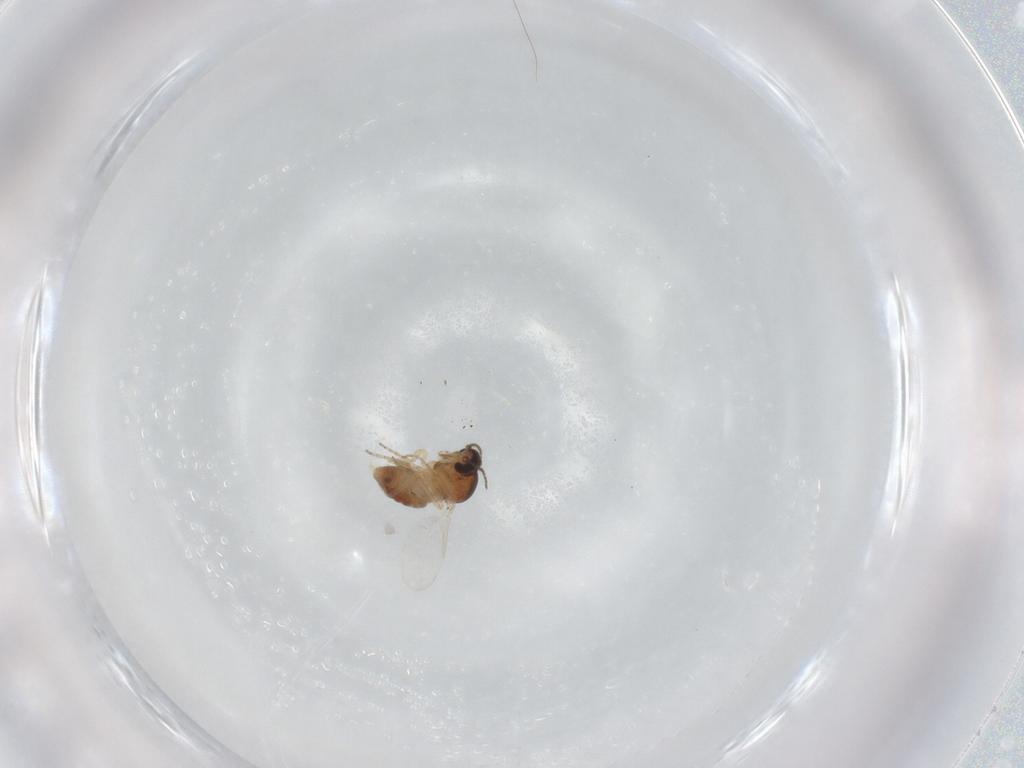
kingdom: Animalia
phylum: Arthropoda
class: Insecta
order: Diptera
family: Ceratopogonidae
